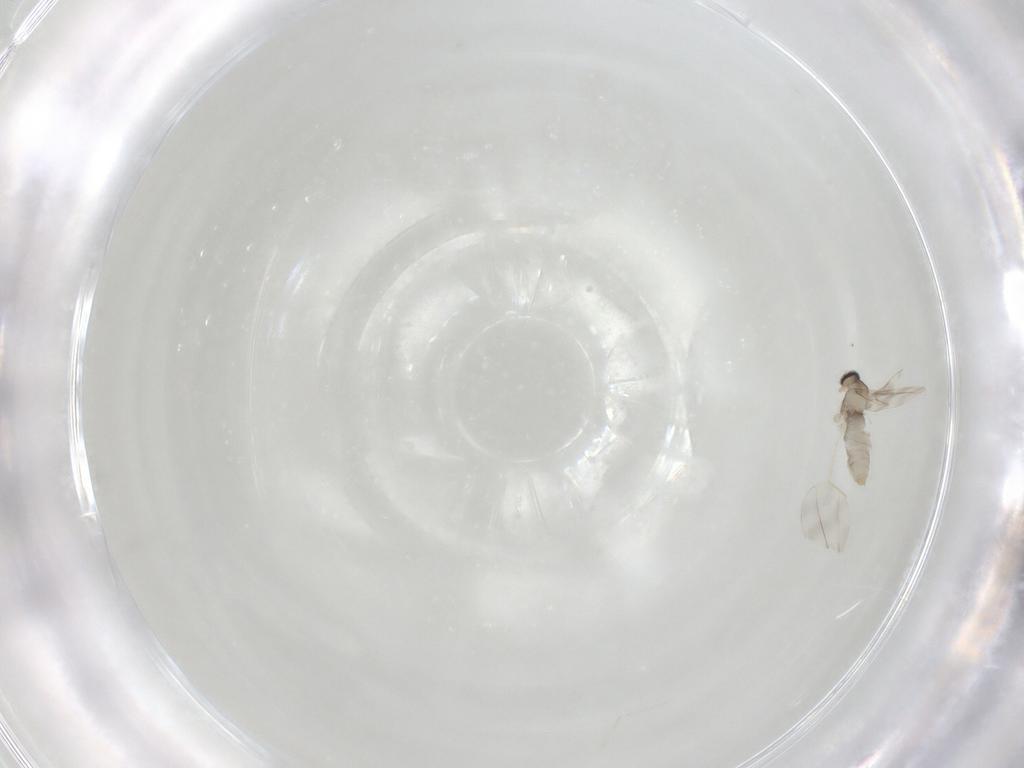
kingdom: Animalia
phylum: Arthropoda
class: Insecta
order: Diptera
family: Cecidomyiidae
